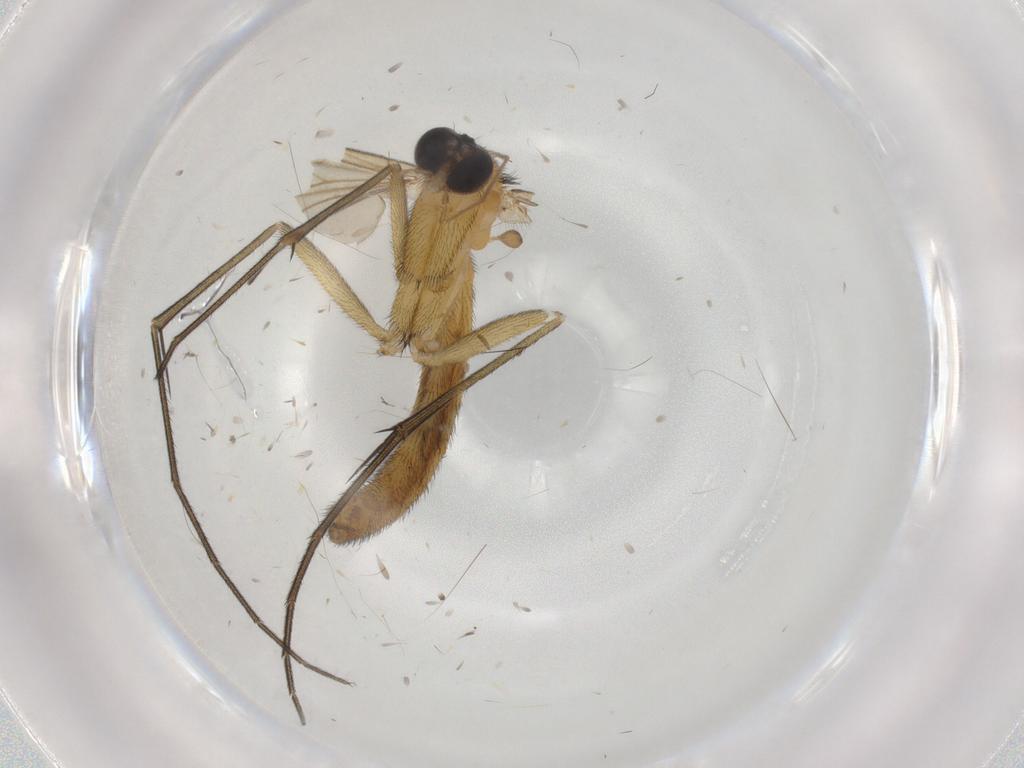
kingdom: Animalia
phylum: Arthropoda
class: Insecta
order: Diptera
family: Ceratopogonidae
